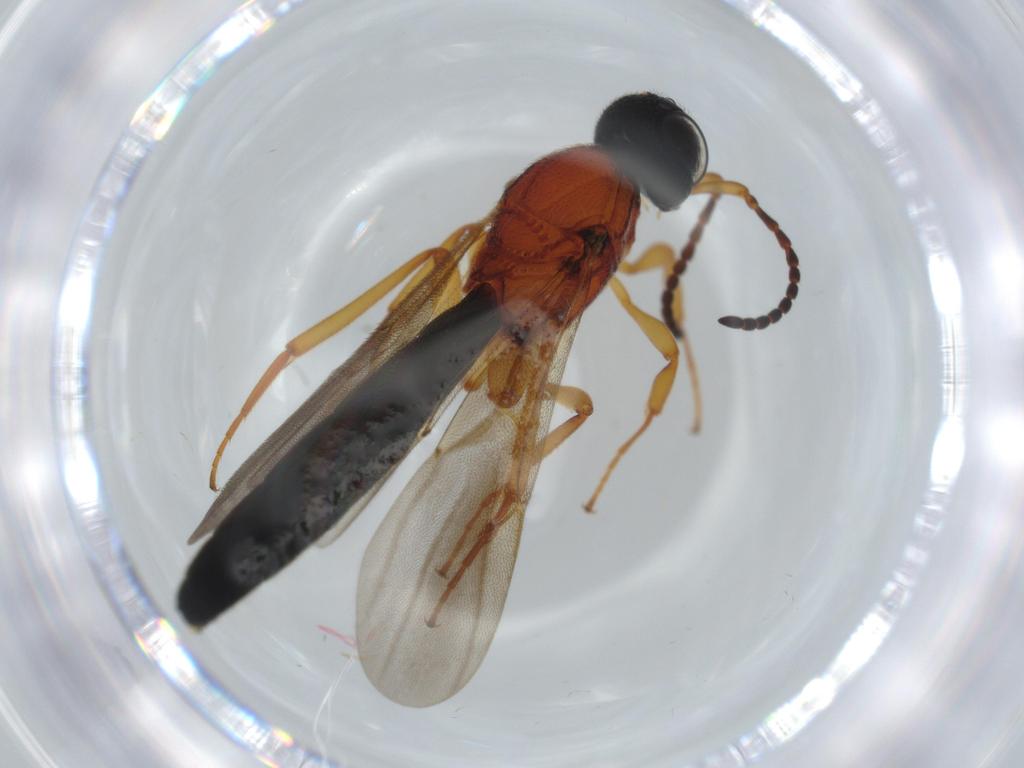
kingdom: Animalia
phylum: Arthropoda
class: Insecta
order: Hymenoptera
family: Scelionidae
